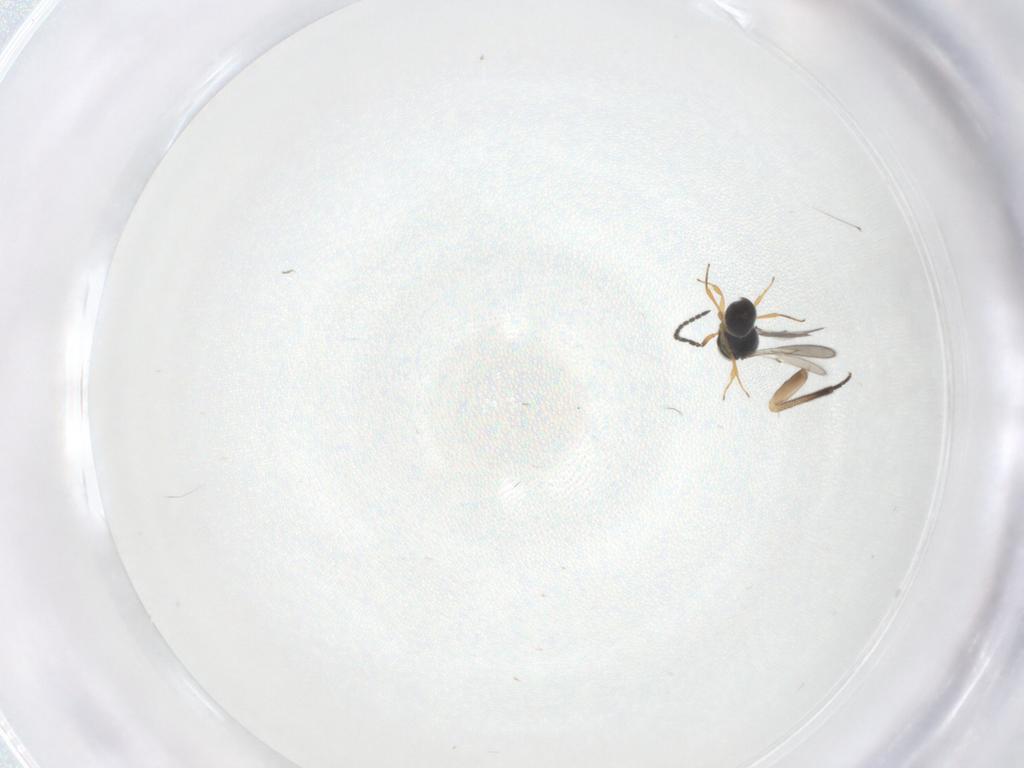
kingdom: Animalia
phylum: Arthropoda
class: Insecta
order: Hymenoptera
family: Scelionidae
